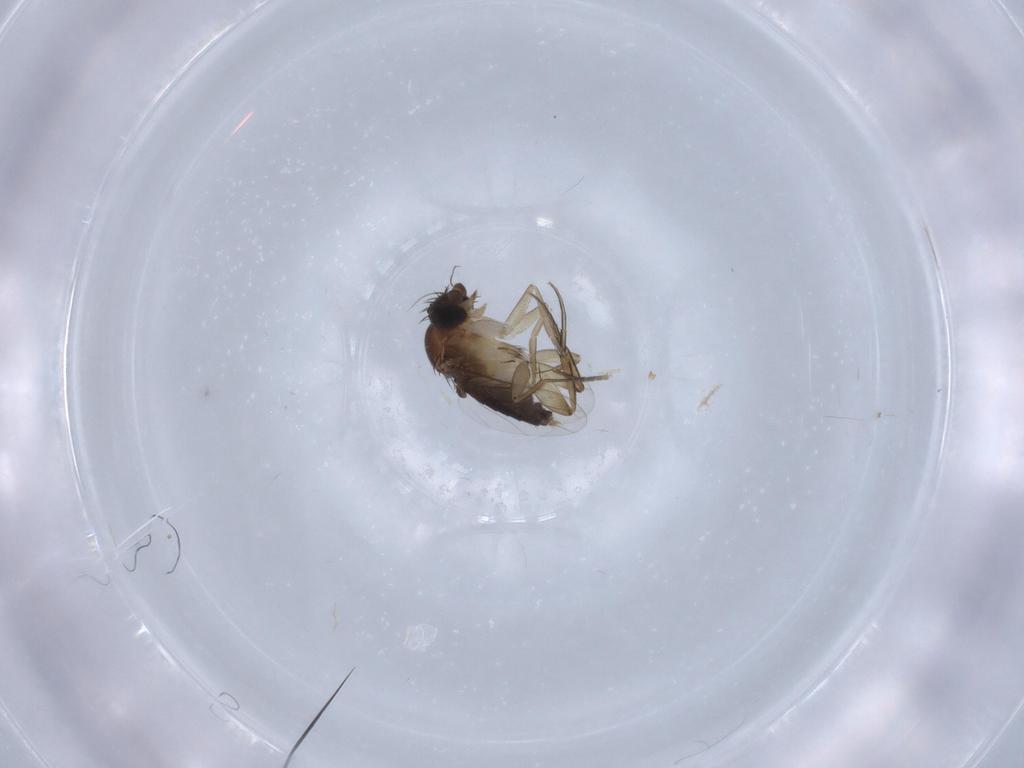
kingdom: Animalia
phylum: Arthropoda
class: Insecta
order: Diptera
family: Phoridae
